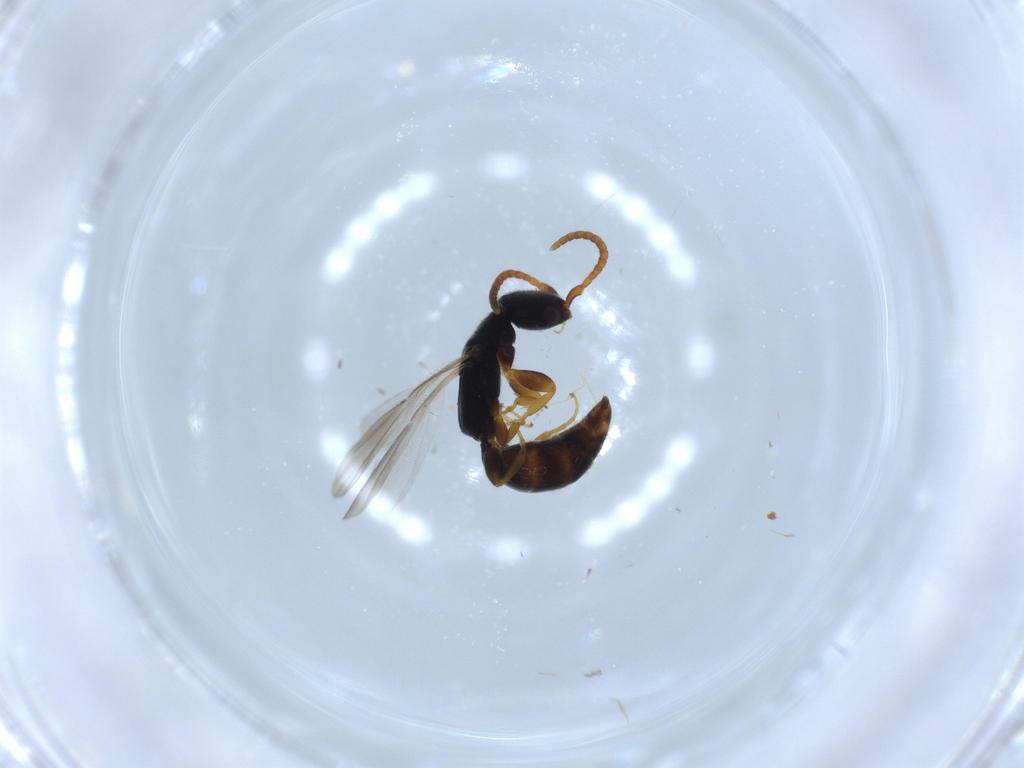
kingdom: Animalia
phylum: Arthropoda
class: Insecta
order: Hymenoptera
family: Bethylidae
